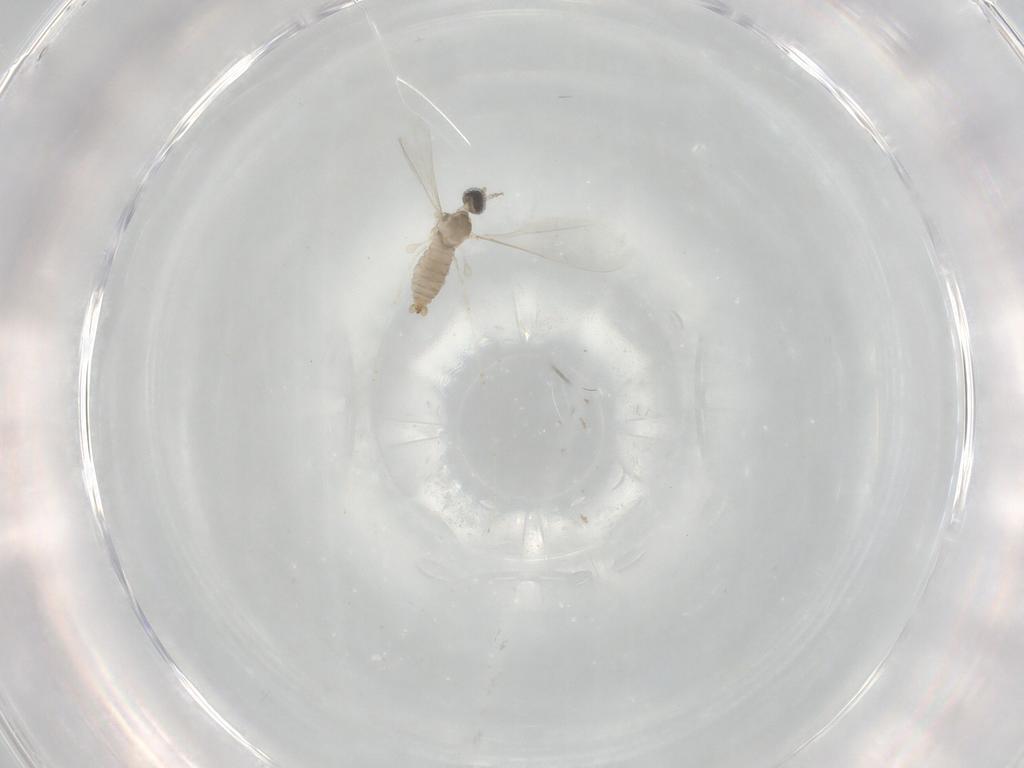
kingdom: Animalia
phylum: Arthropoda
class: Insecta
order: Diptera
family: Cecidomyiidae
